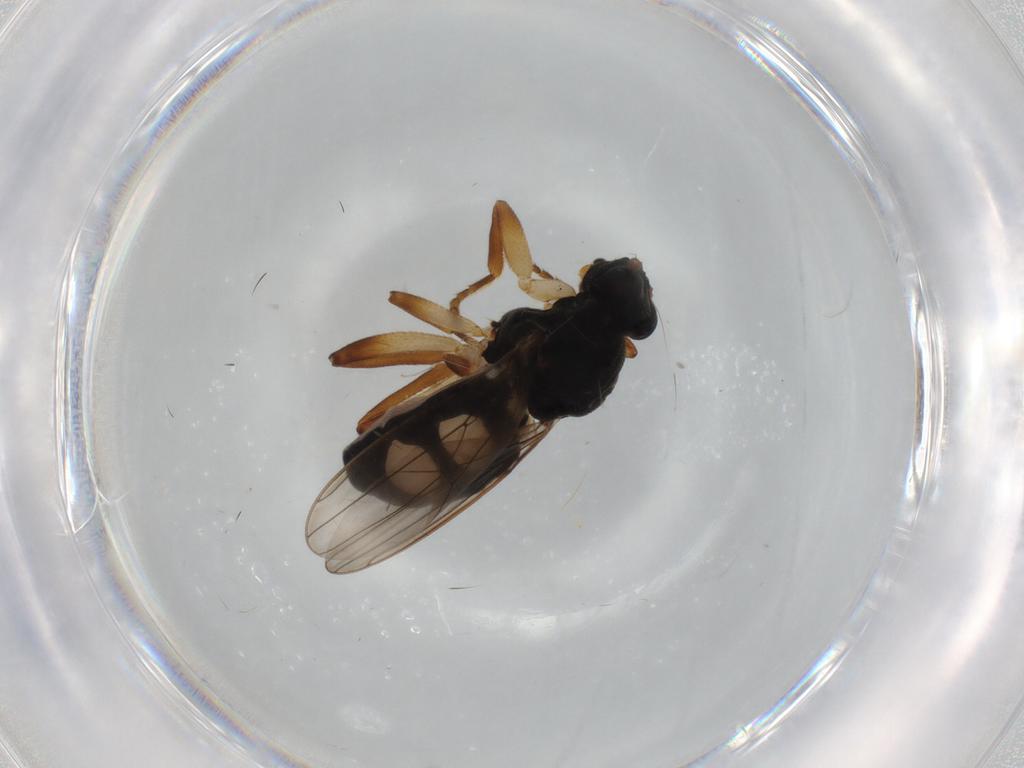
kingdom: Animalia
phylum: Arthropoda
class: Insecta
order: Diptera
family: Sphaeroceridae
